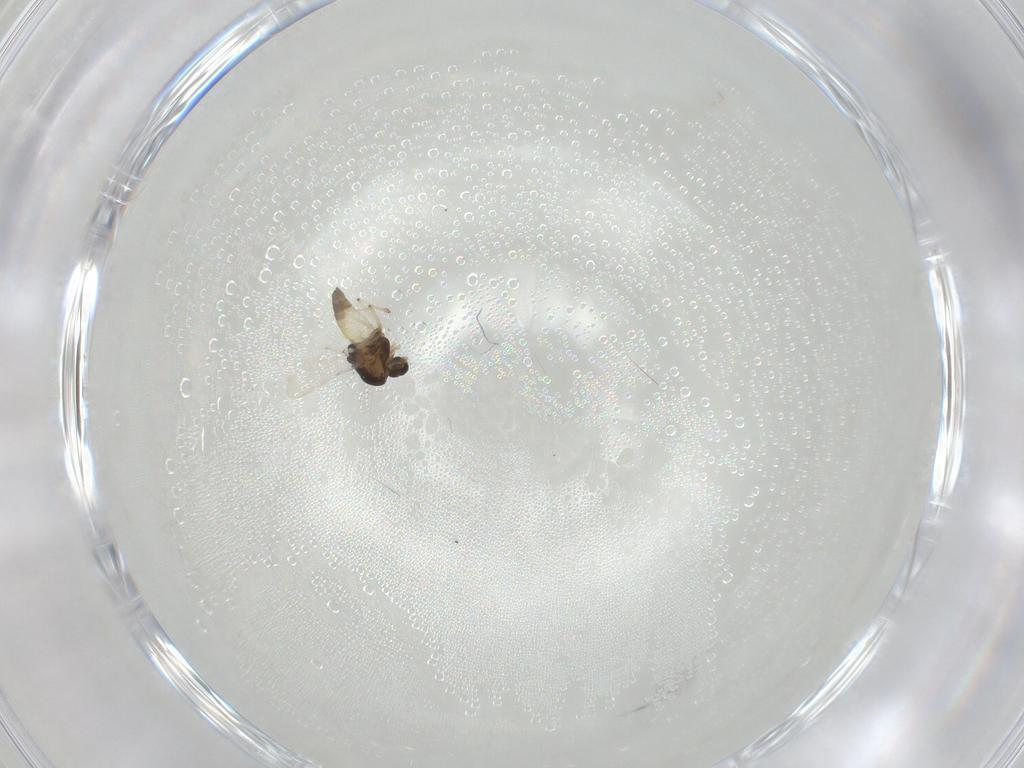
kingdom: Animalia
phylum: Arthropoda
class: Insecta
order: Diptera
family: Chironomidae
